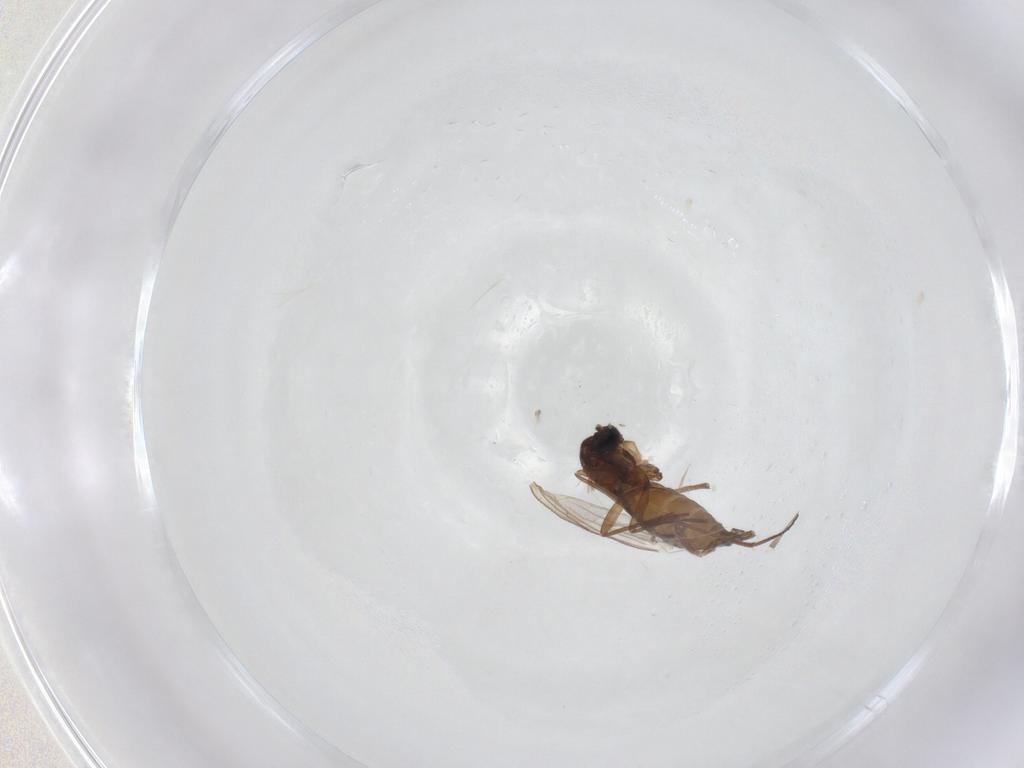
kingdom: Animalia
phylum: Arthropoda
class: Insecta
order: Diptera
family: Sciaridae
